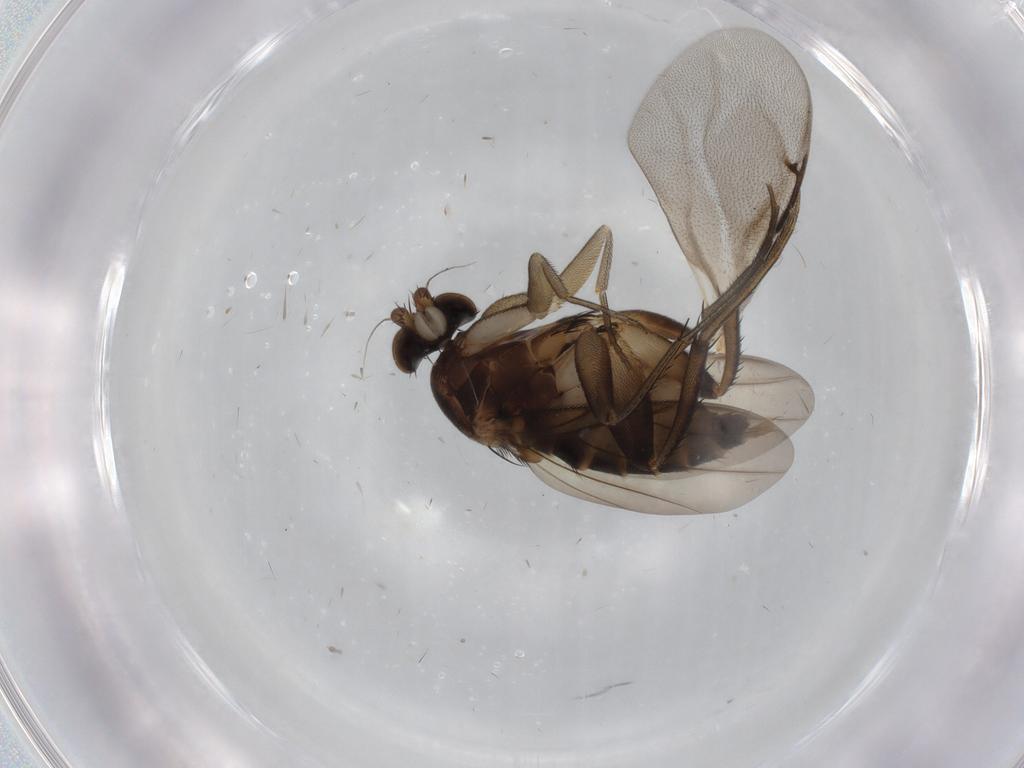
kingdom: Animalia
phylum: Arthropoda
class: Insecta
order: Diptera
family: Phoridae
